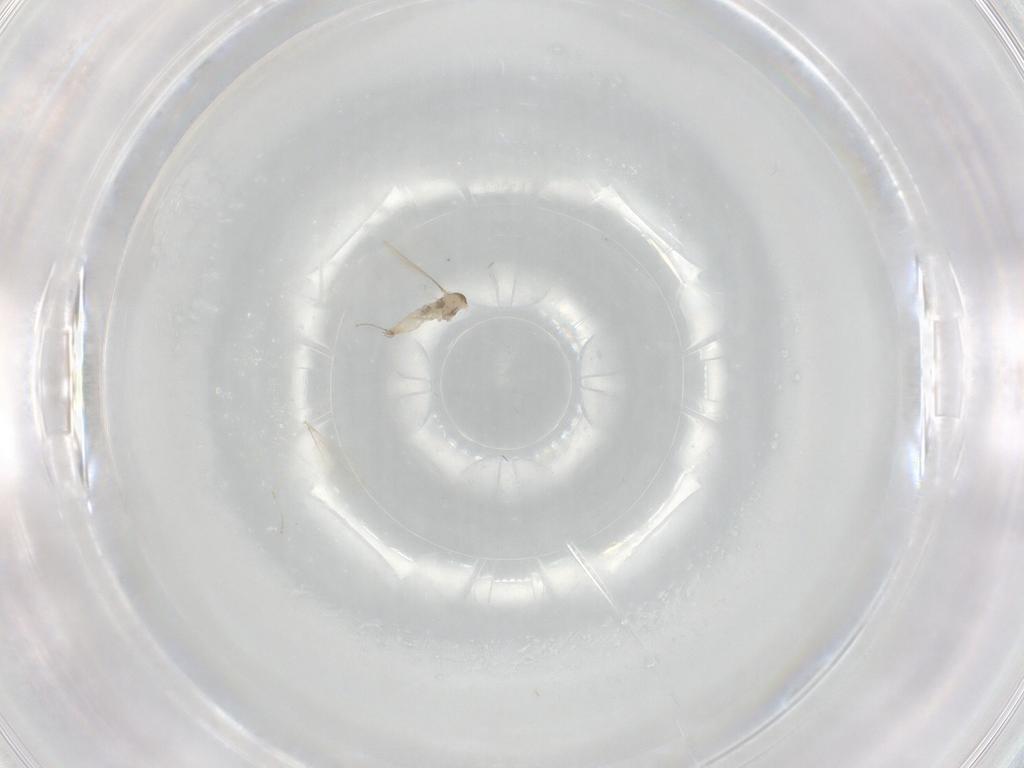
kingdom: Animalia
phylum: Arthropoda
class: Insecta
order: Diptera
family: Cecidomyiidae
